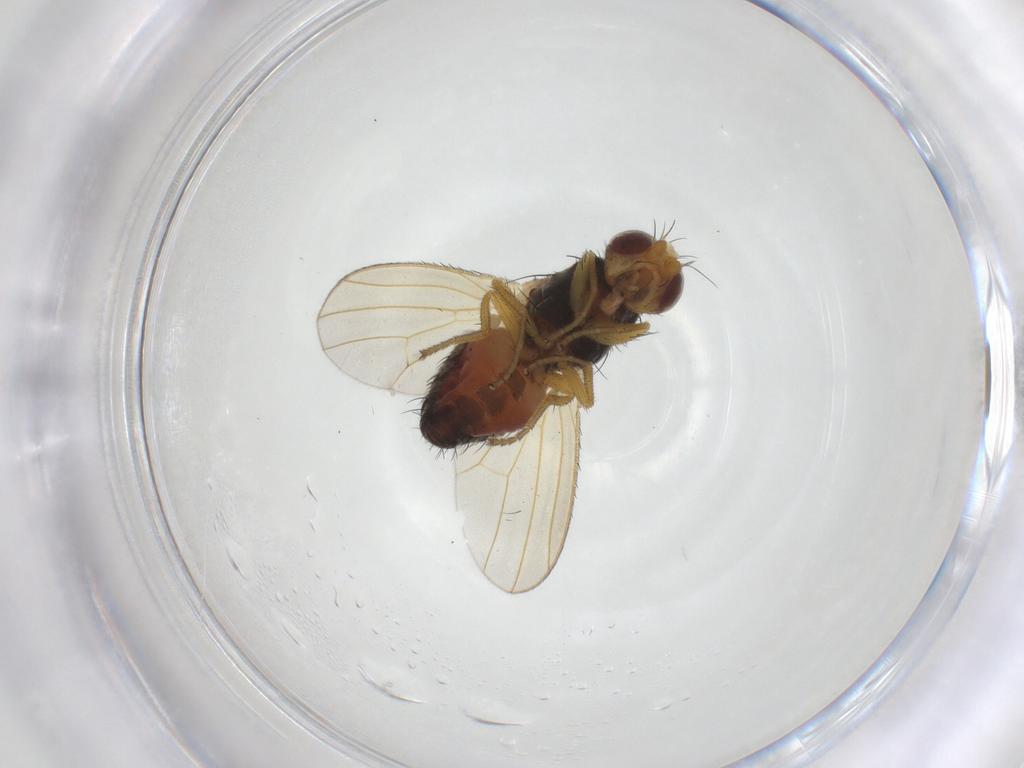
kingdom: Animalia
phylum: Arthropoda
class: Insecta
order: Diptera
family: Heleomyzidae
